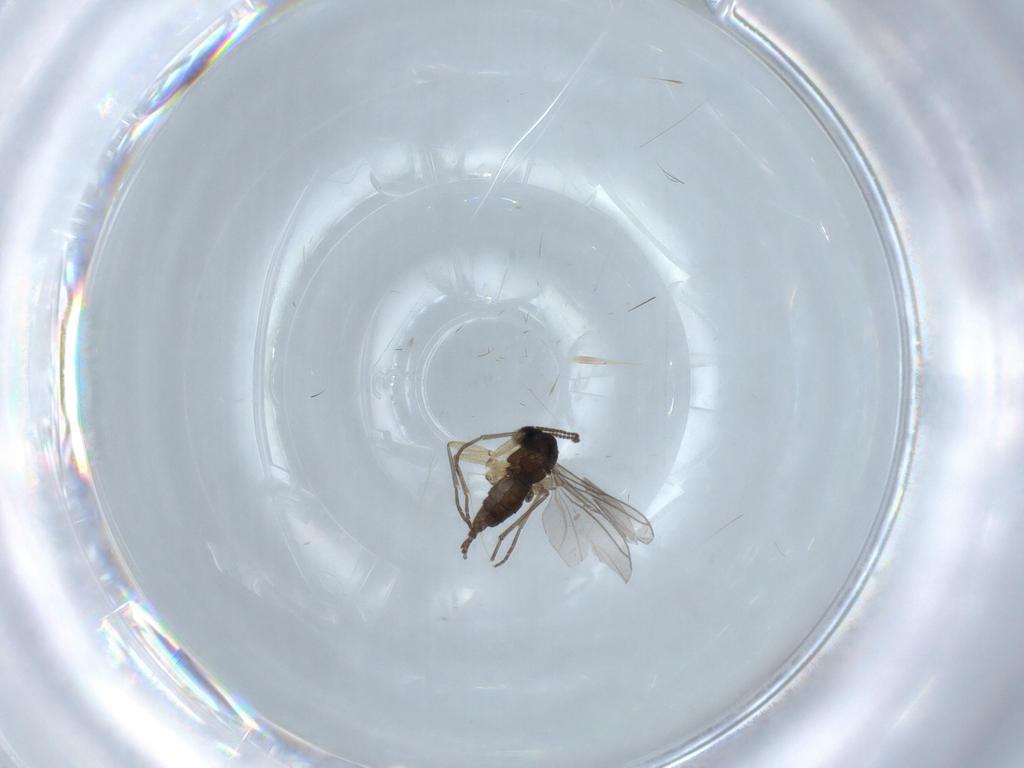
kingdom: Animalia
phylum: Arthropoda
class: Insecta
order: Diptera
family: Sciaridae
